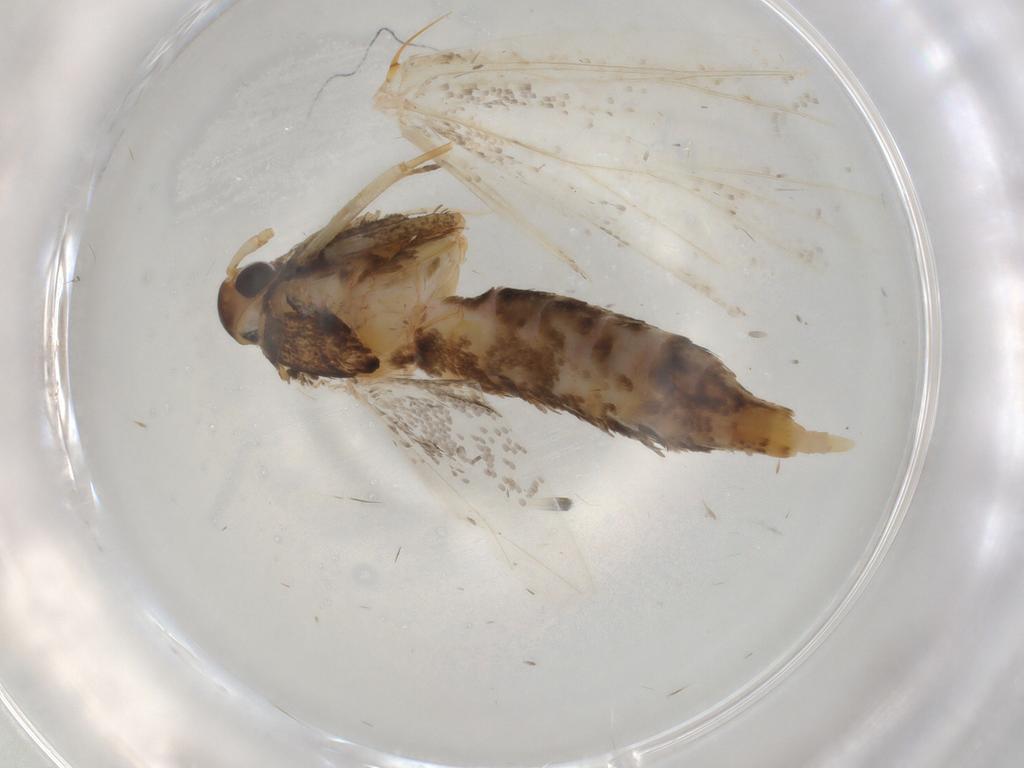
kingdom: Animalia
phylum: Arthropoda
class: Insecta
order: Lepidoptera
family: Lecithoceridae
